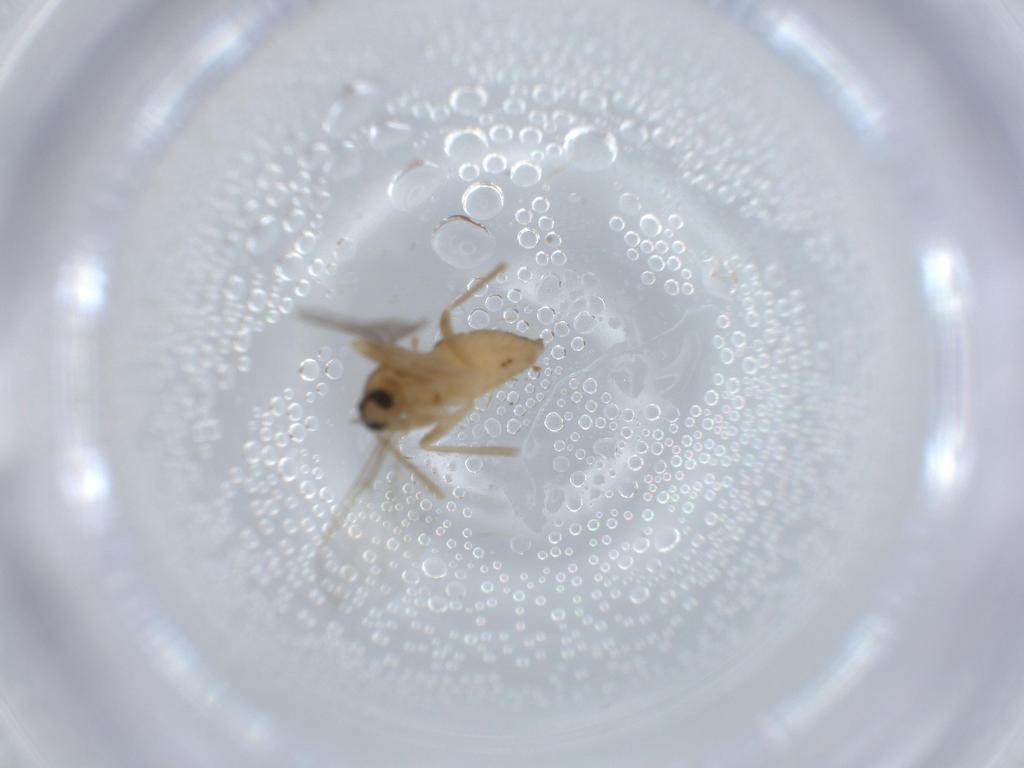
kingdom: Animalia
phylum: Arthropoda
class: Insecta
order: Diptera
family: Cecidomyiidae
